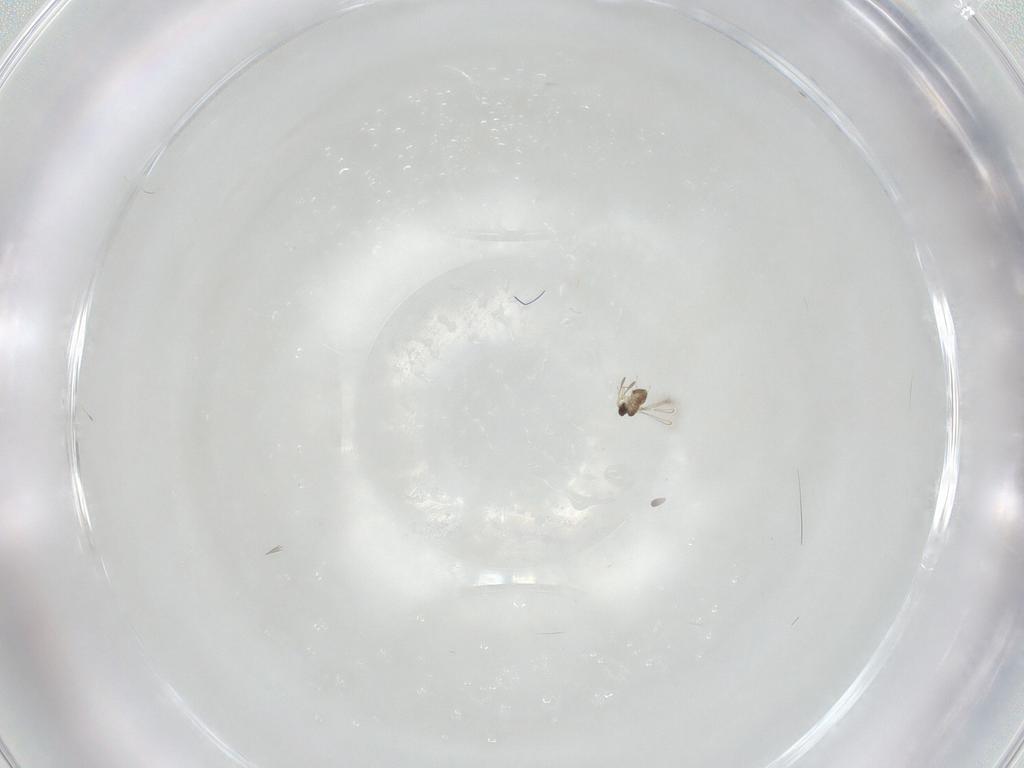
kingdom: Animalia
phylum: Arthropoda
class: Insecta
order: Hymenoptera
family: Mymaridae
